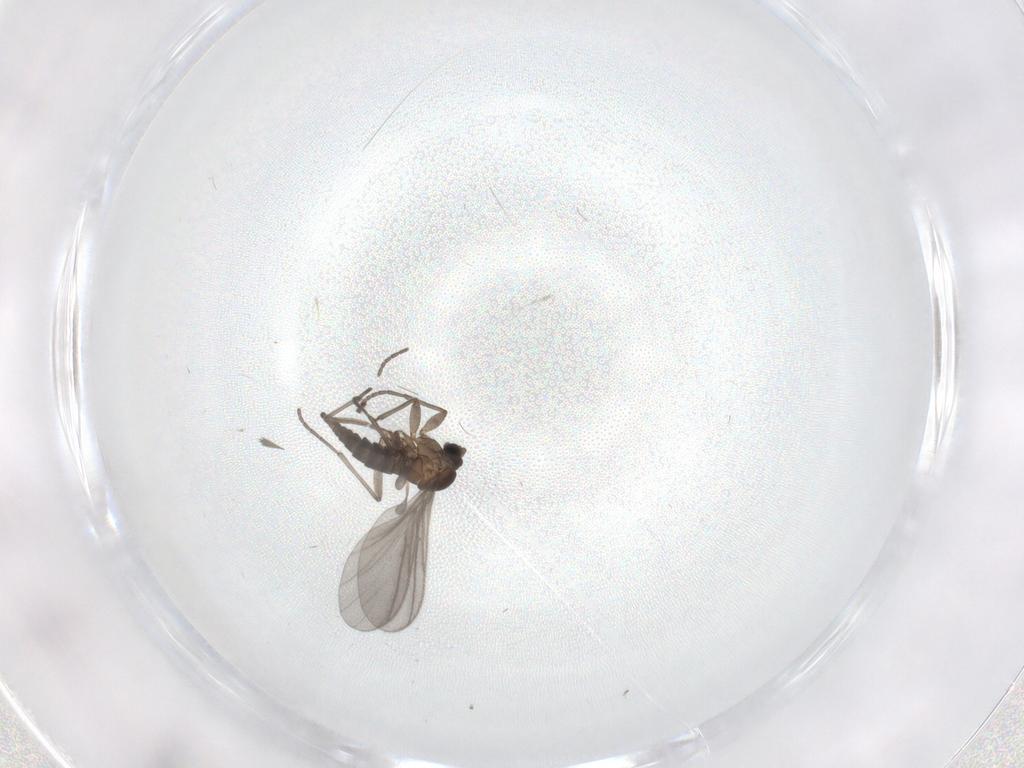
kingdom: Animalia
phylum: Arthropoda
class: Insecta
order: Diptera
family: Sciaridae
